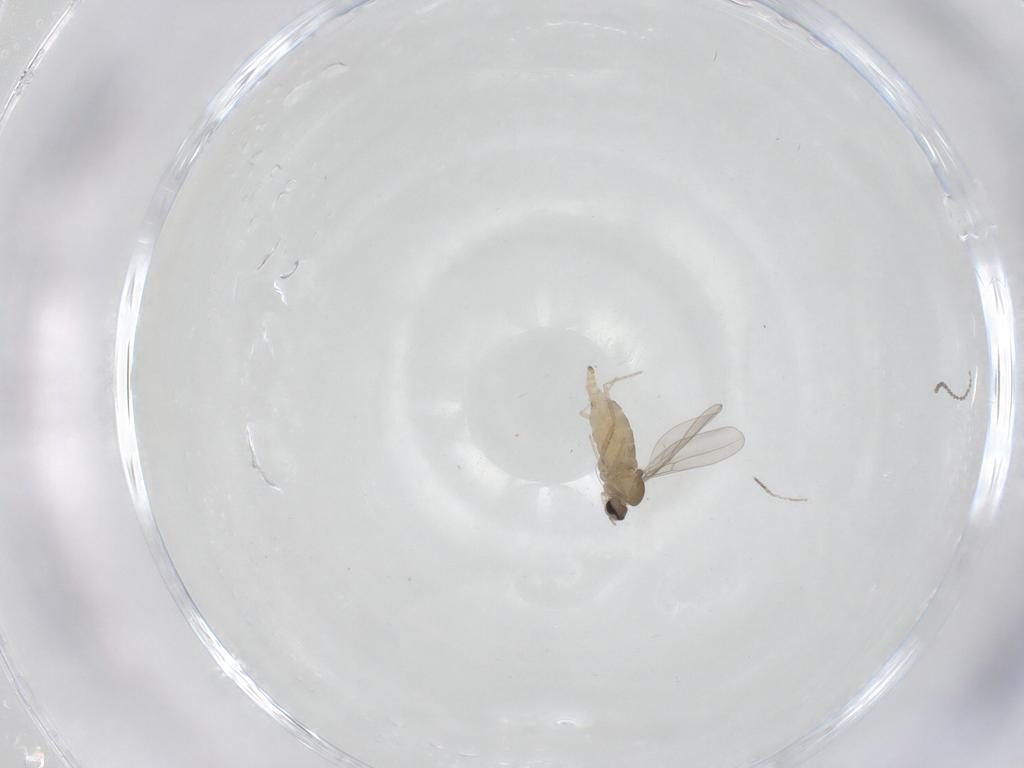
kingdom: Animalia
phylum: Arthropoda
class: Insecta
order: Diptera
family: Cecidomyiidae
